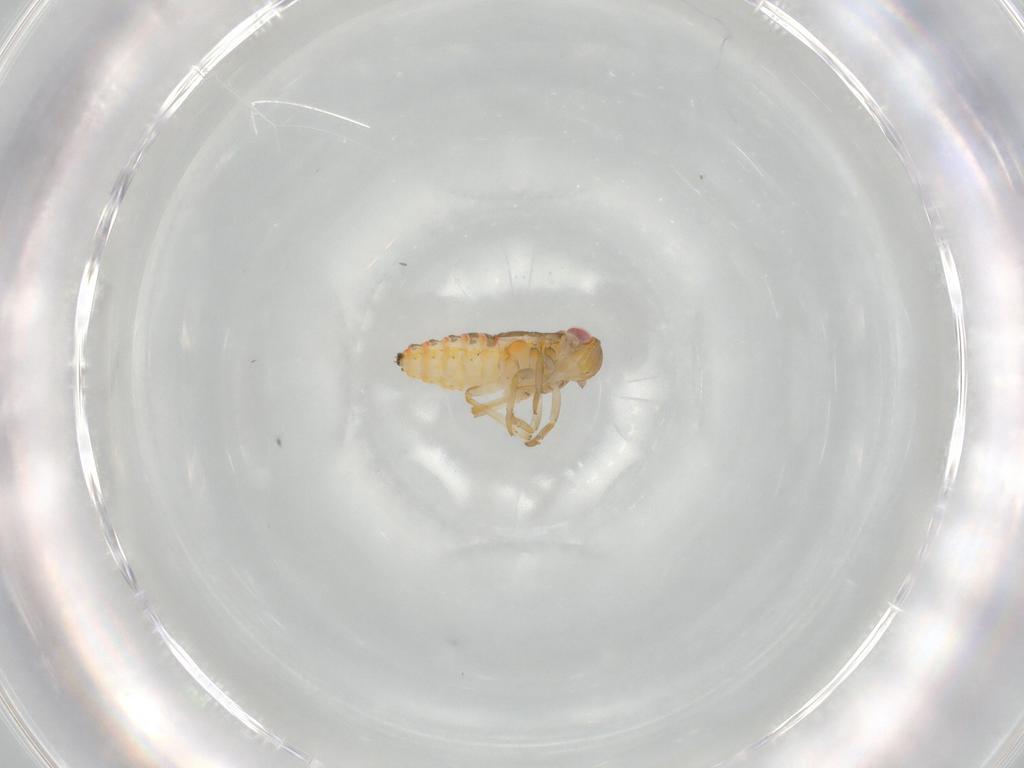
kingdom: Animalia
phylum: Arthropoda
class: Insecta
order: Hemiptera
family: Issidae
